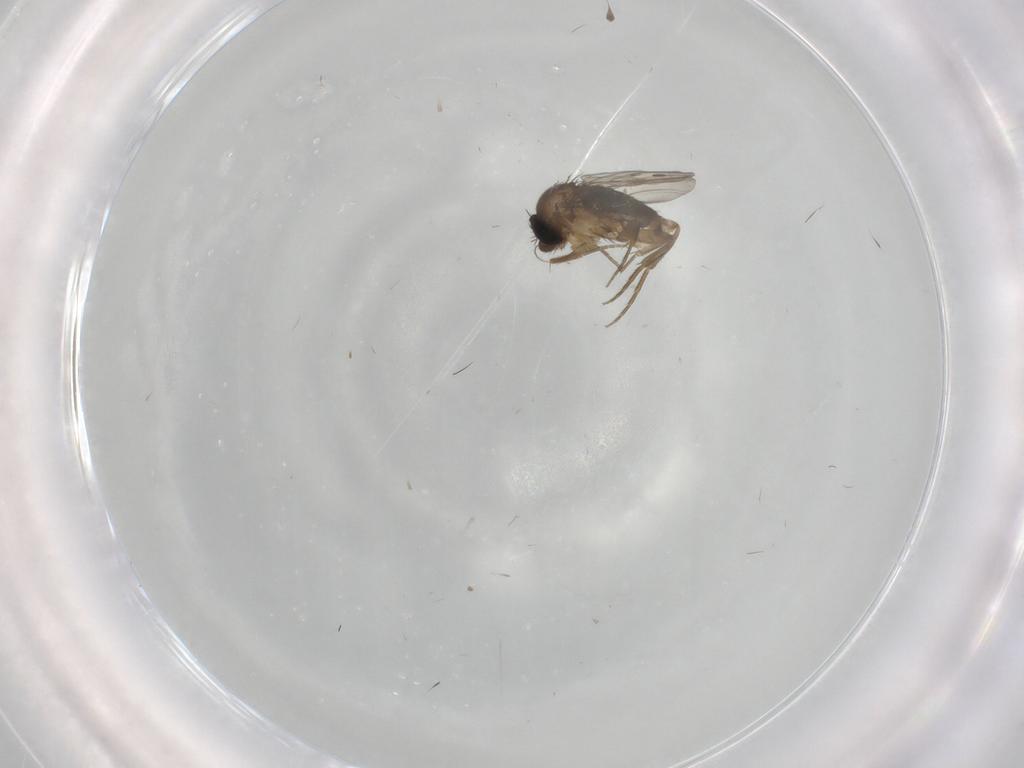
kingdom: Animalia
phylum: Arthropoda
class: Insecta
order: Diptera
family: Phoridae
